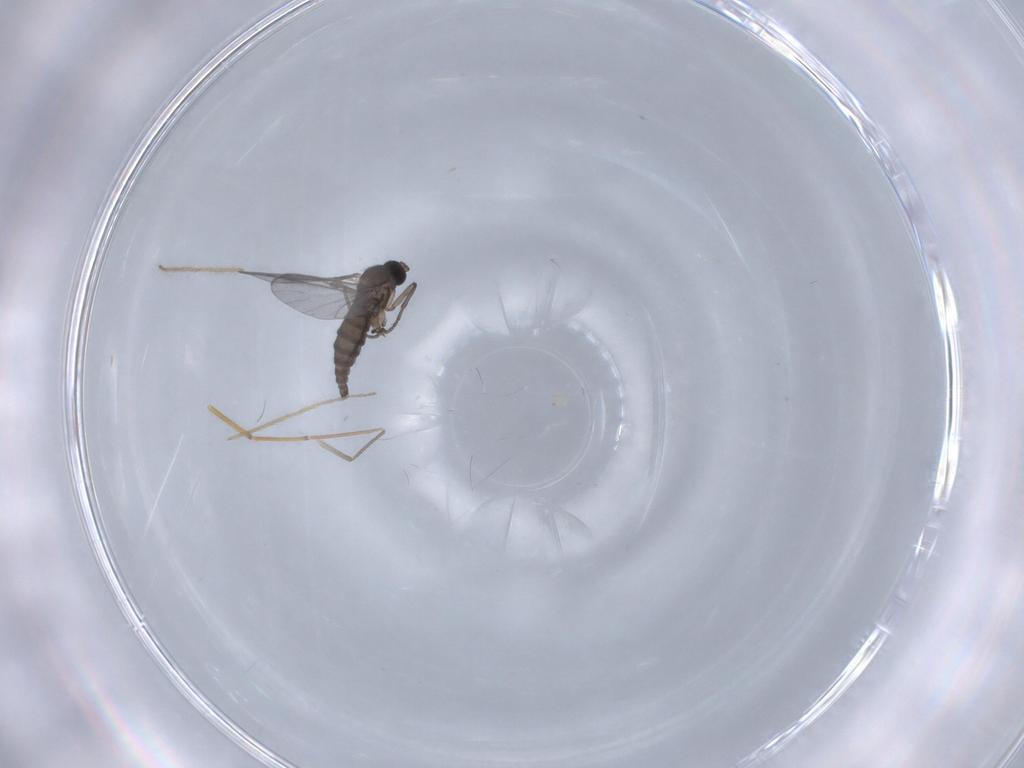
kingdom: Animalia
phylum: Arthropoda
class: Insecta
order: Diptera
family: Chironomidae
